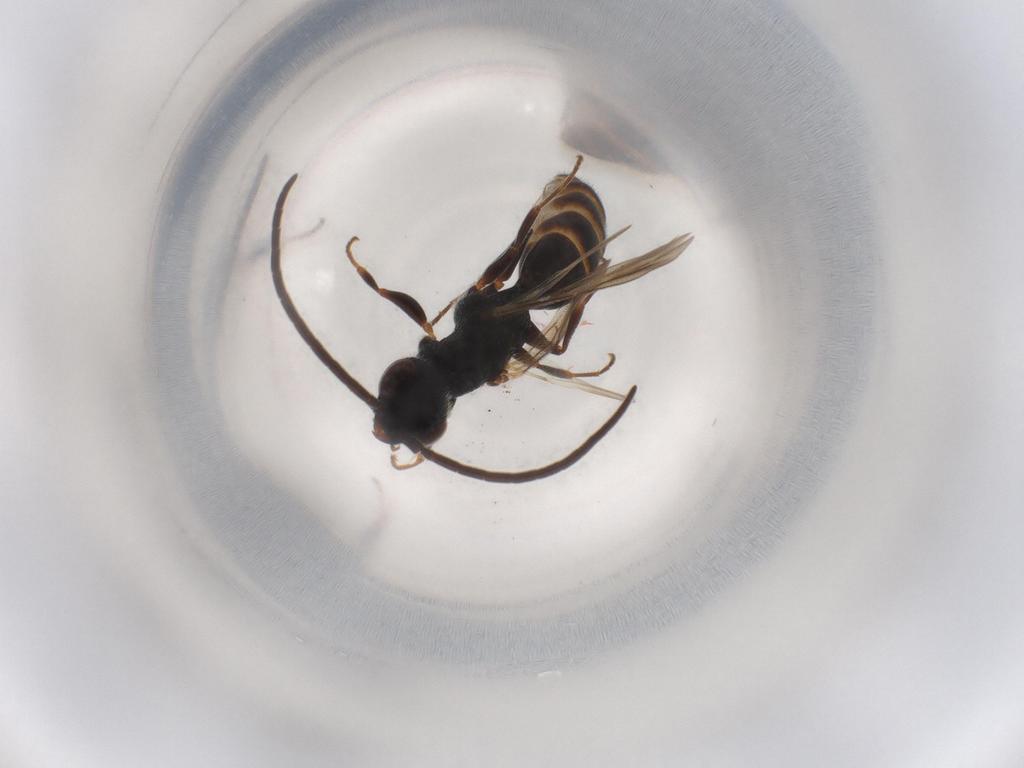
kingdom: Animalia
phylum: Arthropoda
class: Insecta
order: Hymenoptera
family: Bethylidae
